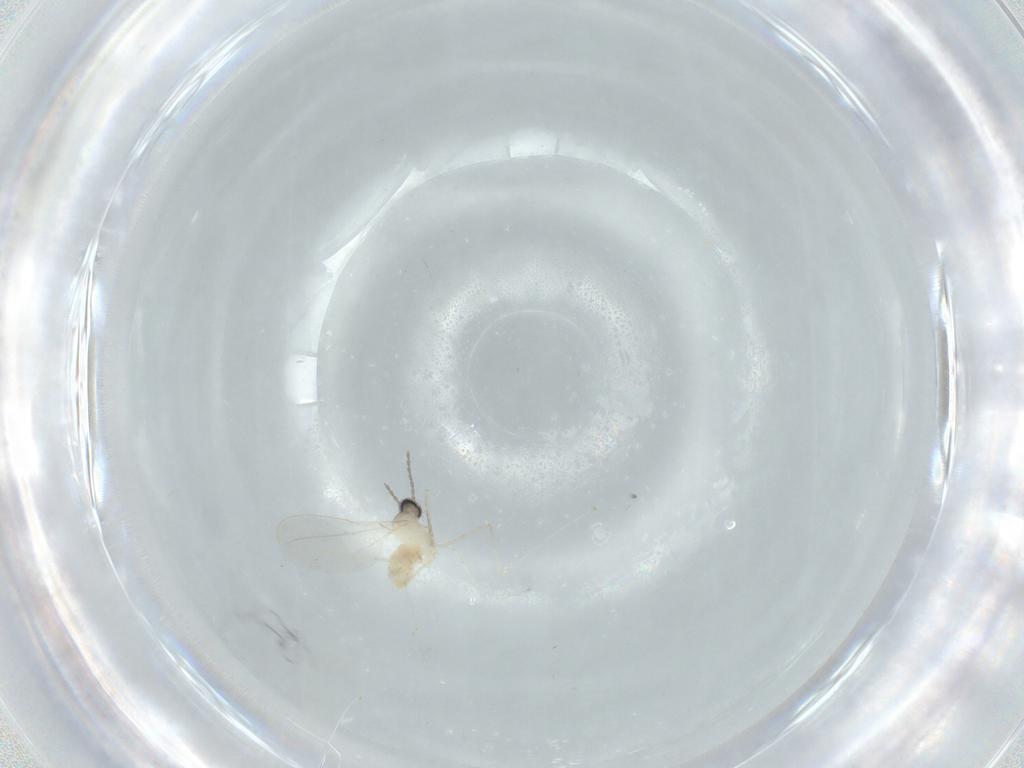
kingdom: Animalia
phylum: Arthropoda
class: Insecta
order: Diptera
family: Cecidomyiidae
